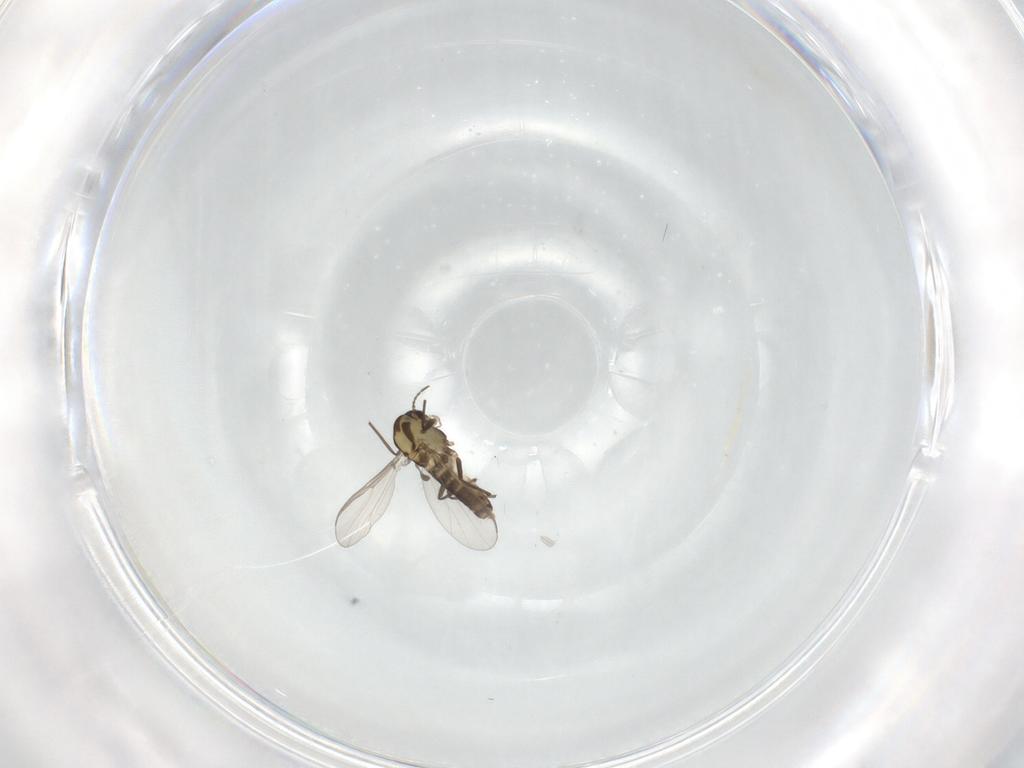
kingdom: Animalia
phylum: Arthropoda
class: Insecta
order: Diptera
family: Chironomidae
